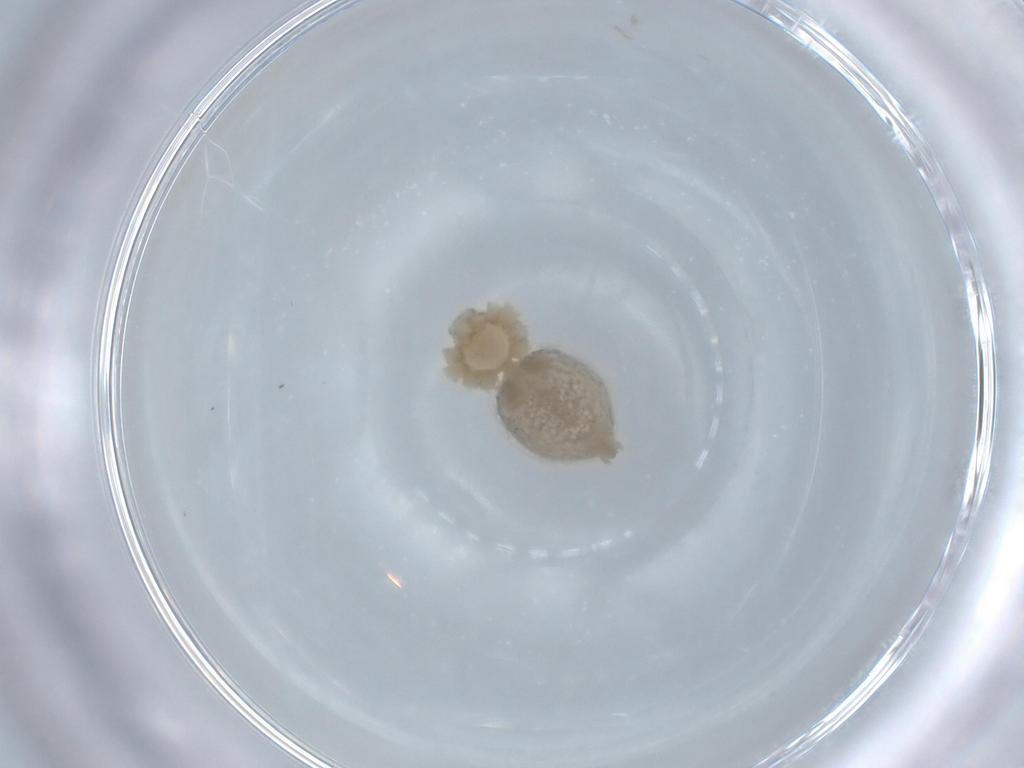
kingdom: Animalia
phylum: Arthropoda
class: Arachnida
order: Araneae
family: Philodromidae
